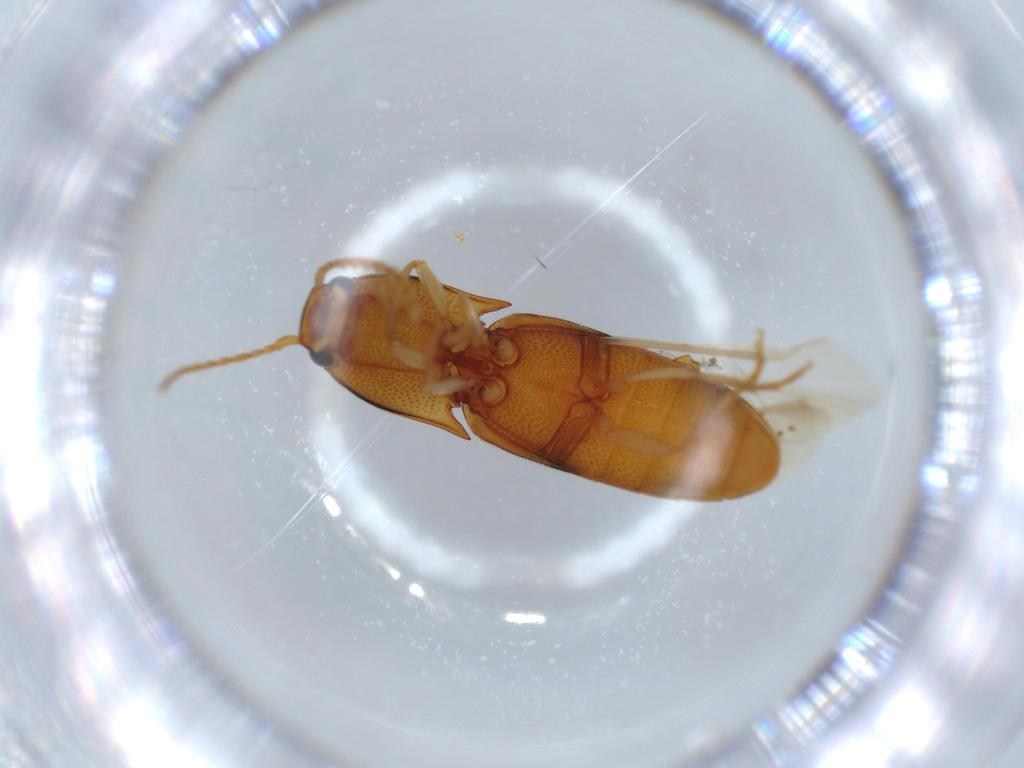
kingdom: Animalia
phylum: Arthropoda
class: Insecta
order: Coleoptera
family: Elateridae
